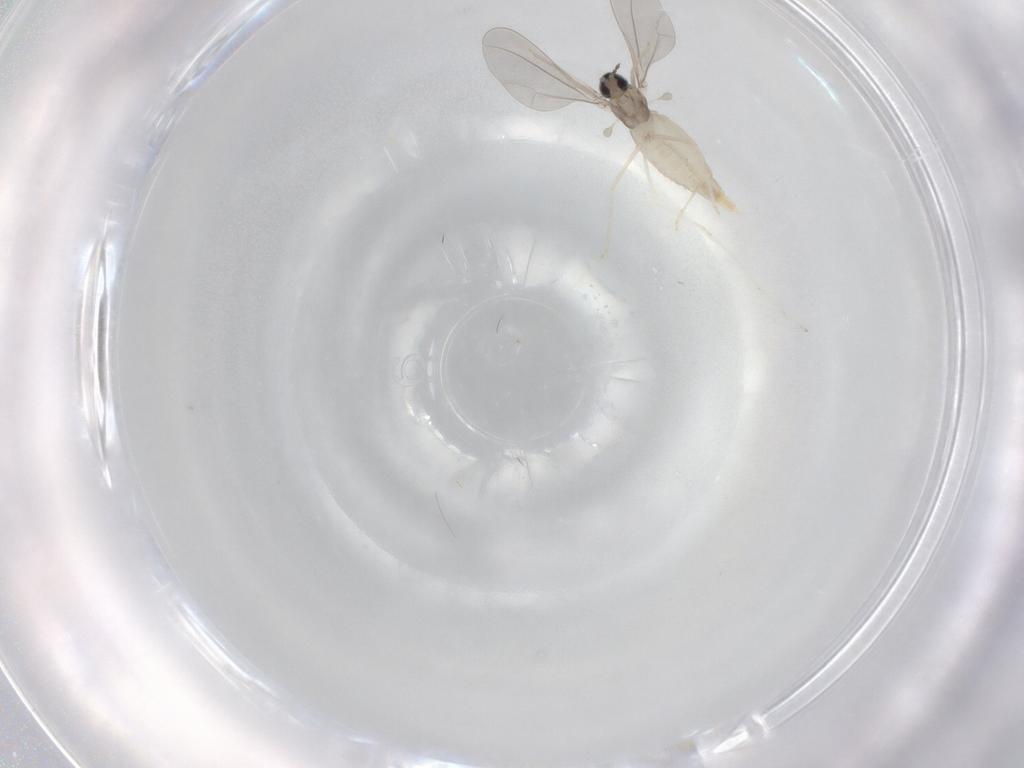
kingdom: Animalia
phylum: Arthropoda
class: Insecta
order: Diptera
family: Cecidomyiidae
